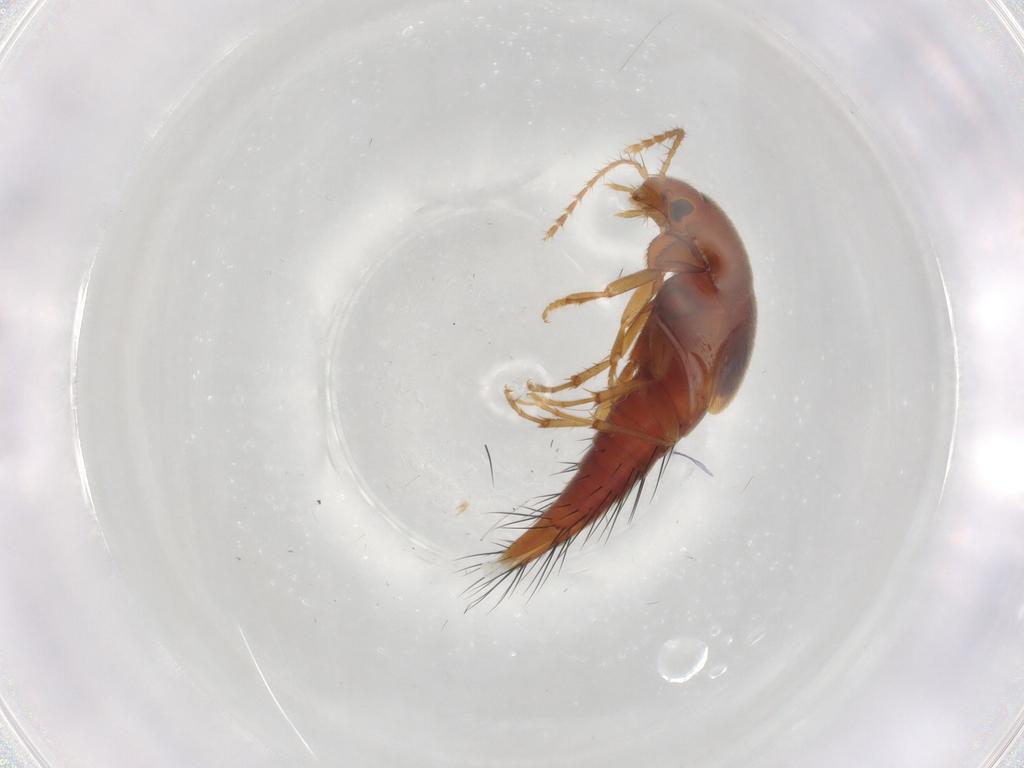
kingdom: Animalia
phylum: Arthropoda
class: Insecta
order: Coleoptera
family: Staphylinidae
